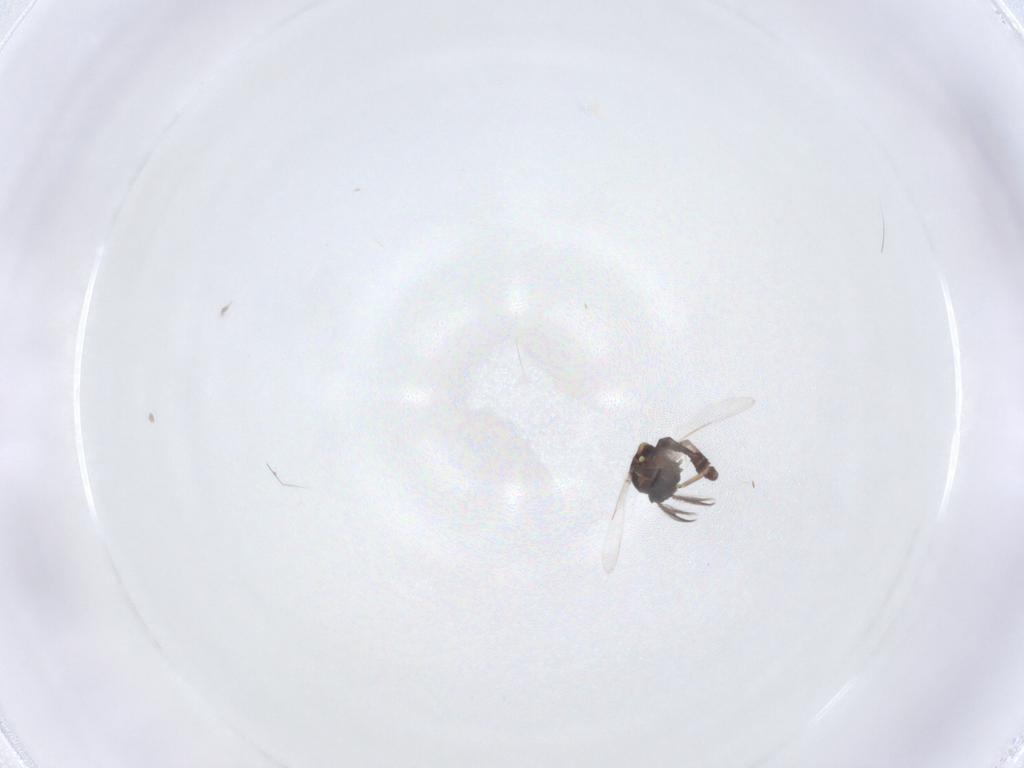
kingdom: Animalia
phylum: Arthropoda
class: Insecta
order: Diptera
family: Ceratopogonidae
